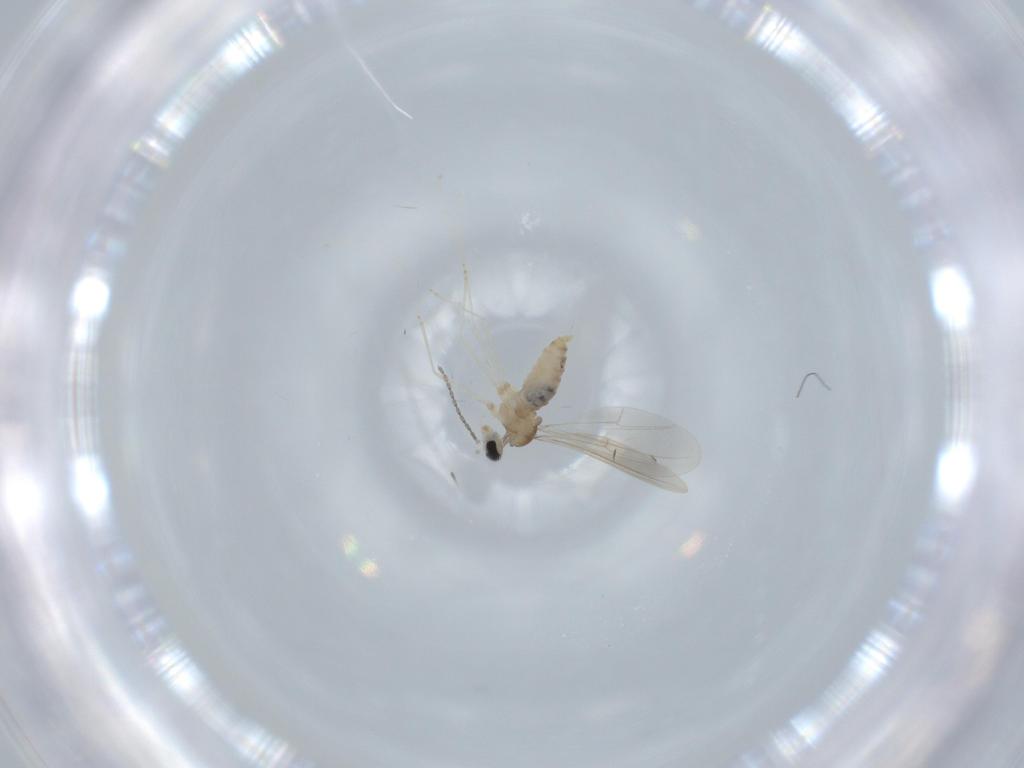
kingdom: Animalia
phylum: Arthropoda
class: Insecta
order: Diptera
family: Cecidomyiidae
